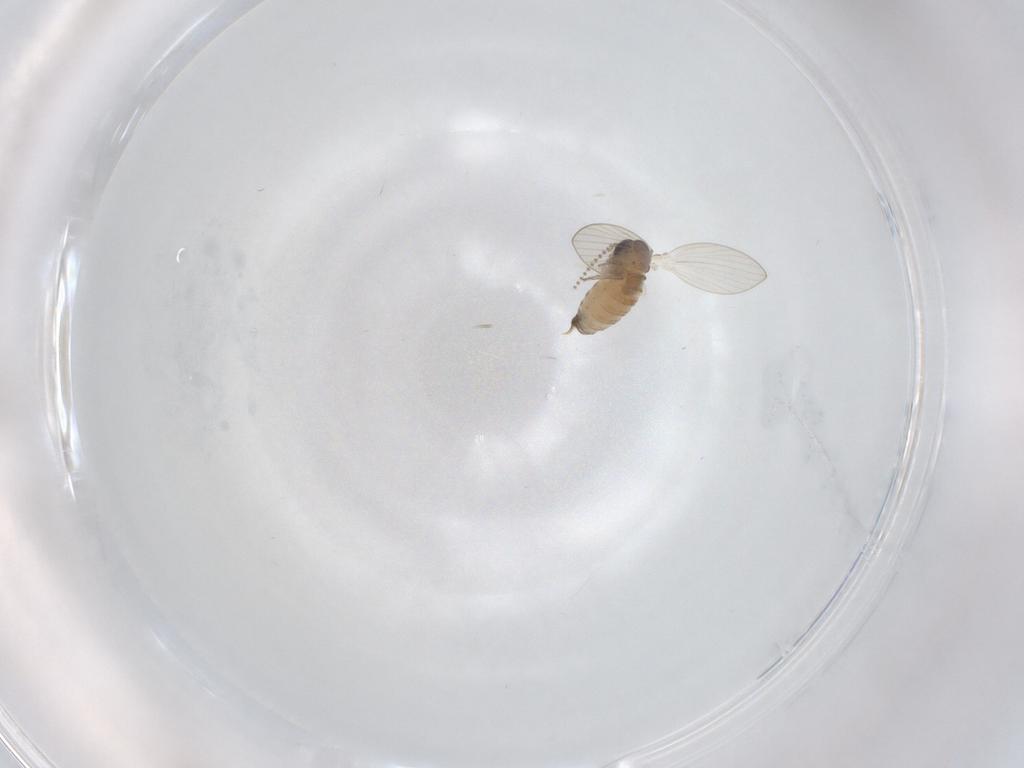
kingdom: Animalia
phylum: Arthropoda
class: Insecta
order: Diptera
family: Psychodidae
